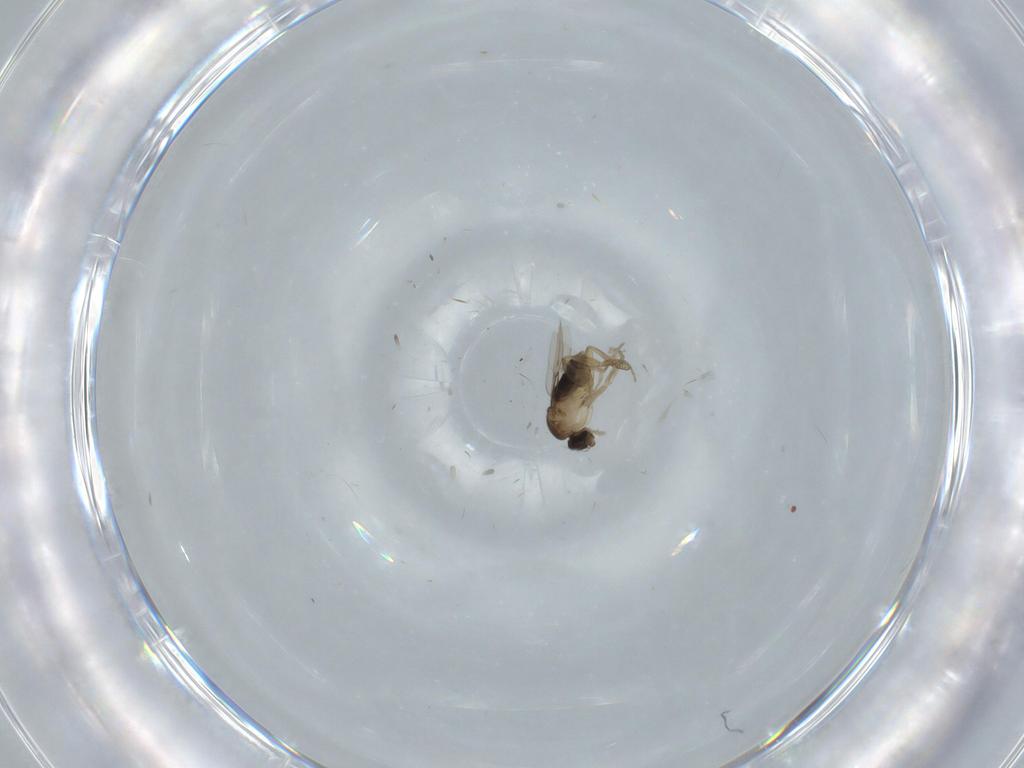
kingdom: Animalia
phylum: Arthropoda
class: Insecta
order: Diptera
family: Phoridae
